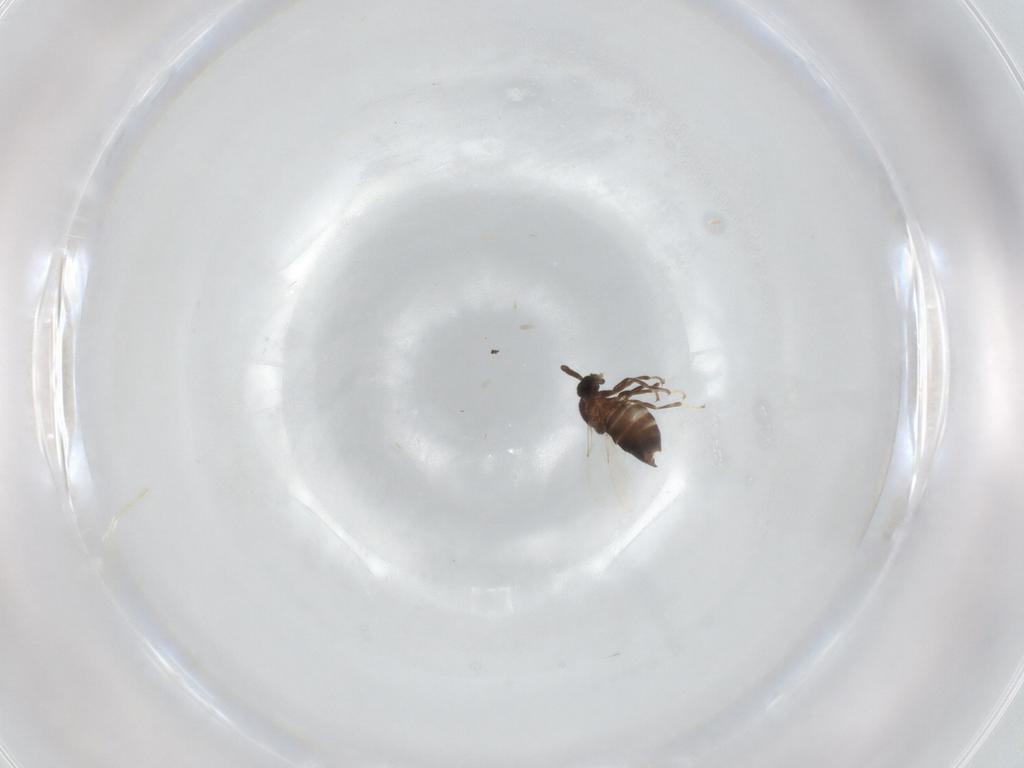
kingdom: Animalia
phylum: Arthropoda
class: Insecta
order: Diptera
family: Scatopsidae
